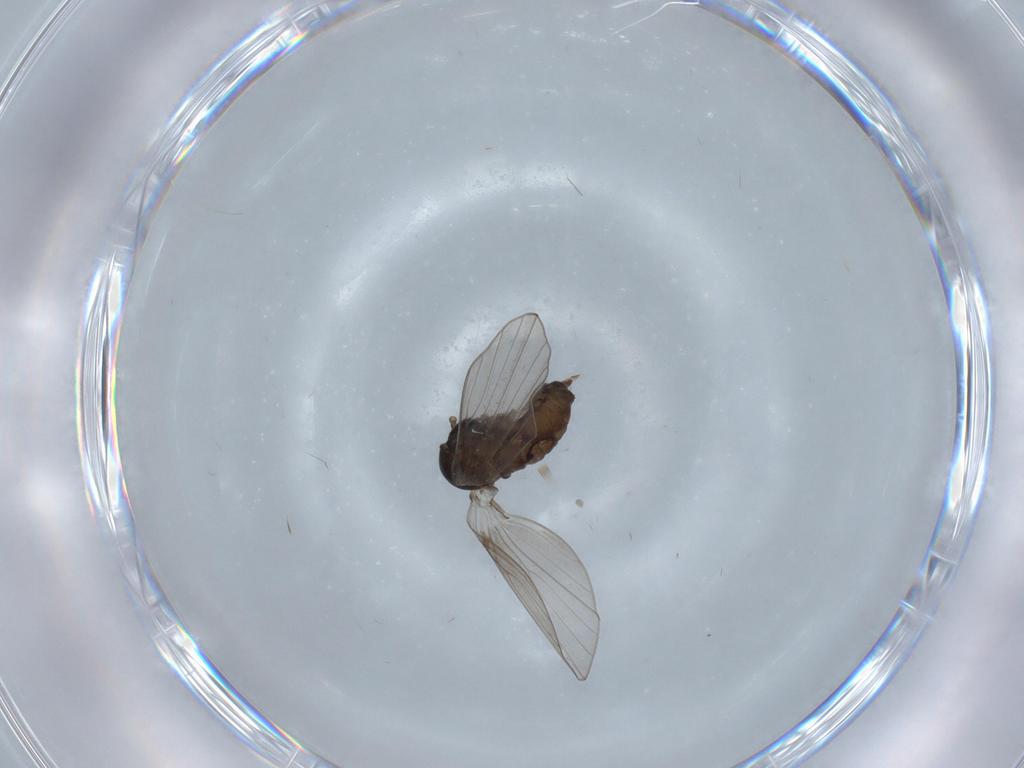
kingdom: Animalia
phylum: Arthropoda
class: Insecta
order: Diptera
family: Psychodidae
